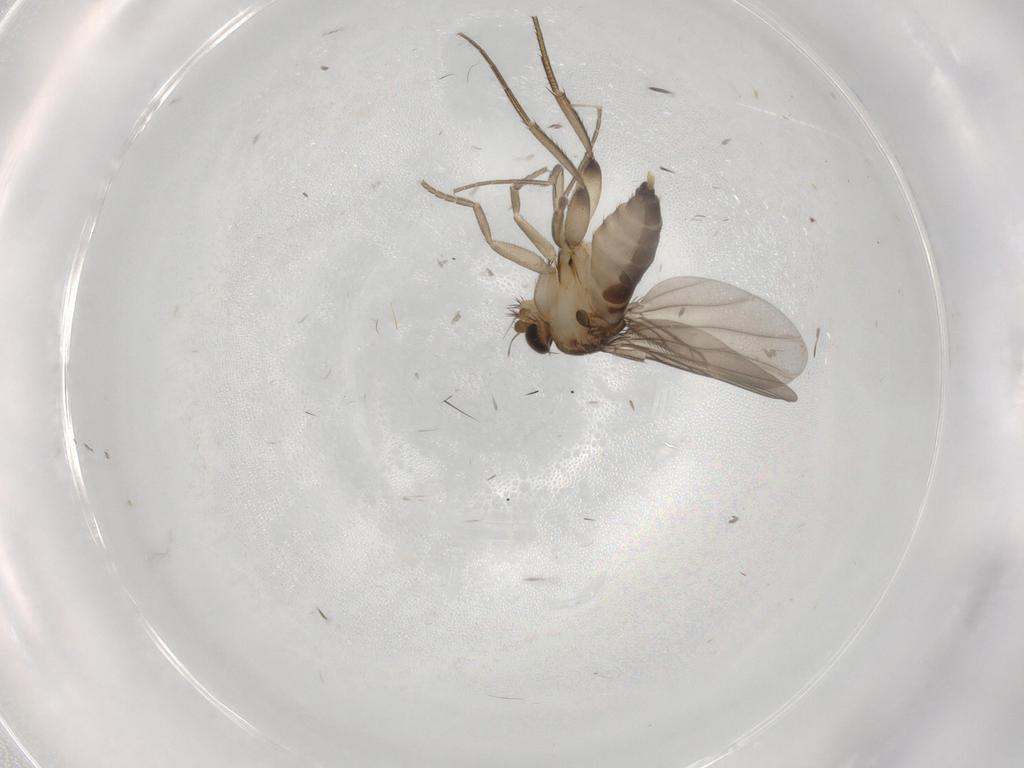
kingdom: Animalia
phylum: Arthropoda
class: Insecta
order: Diptera
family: Phoridae
